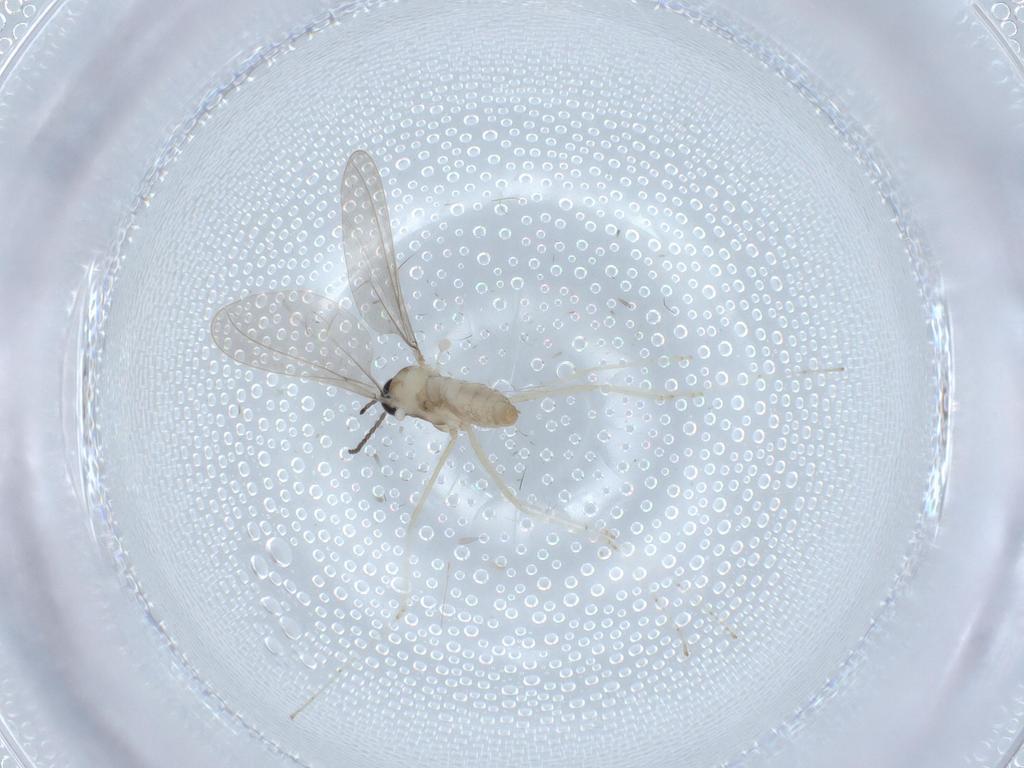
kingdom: Animalia
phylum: Arthropoda
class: Insecta
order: Diptera
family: Cecidomyiidae
